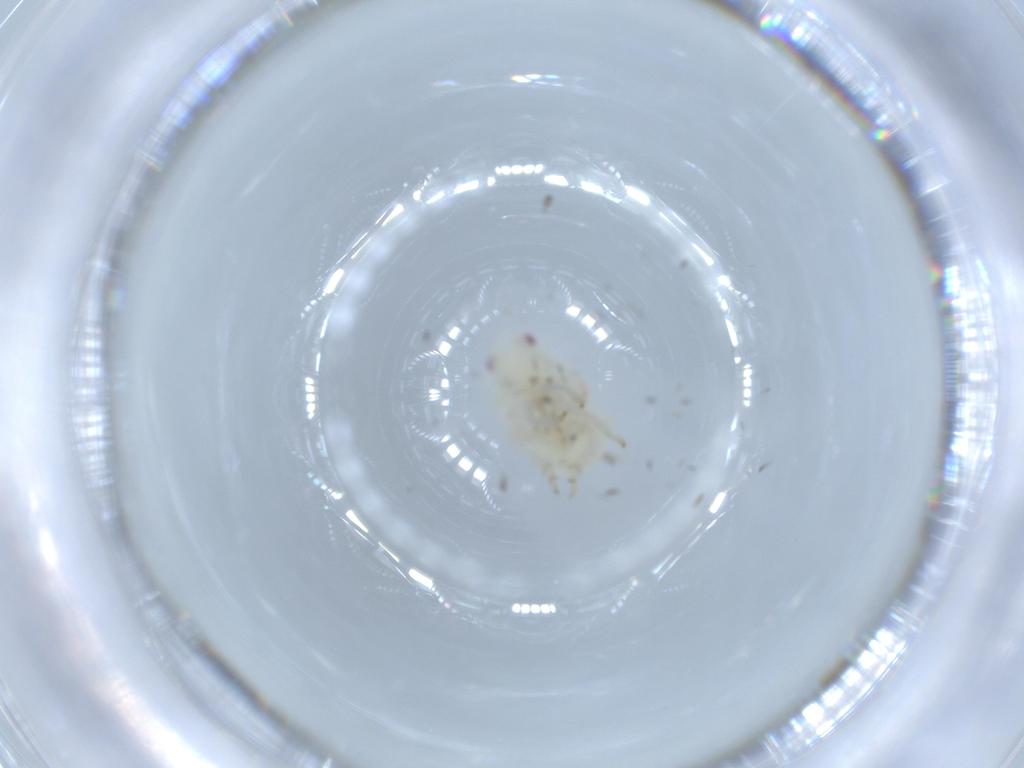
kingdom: Animalia
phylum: Arthropoda
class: Insecta
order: Hemiptera
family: Flatidae
